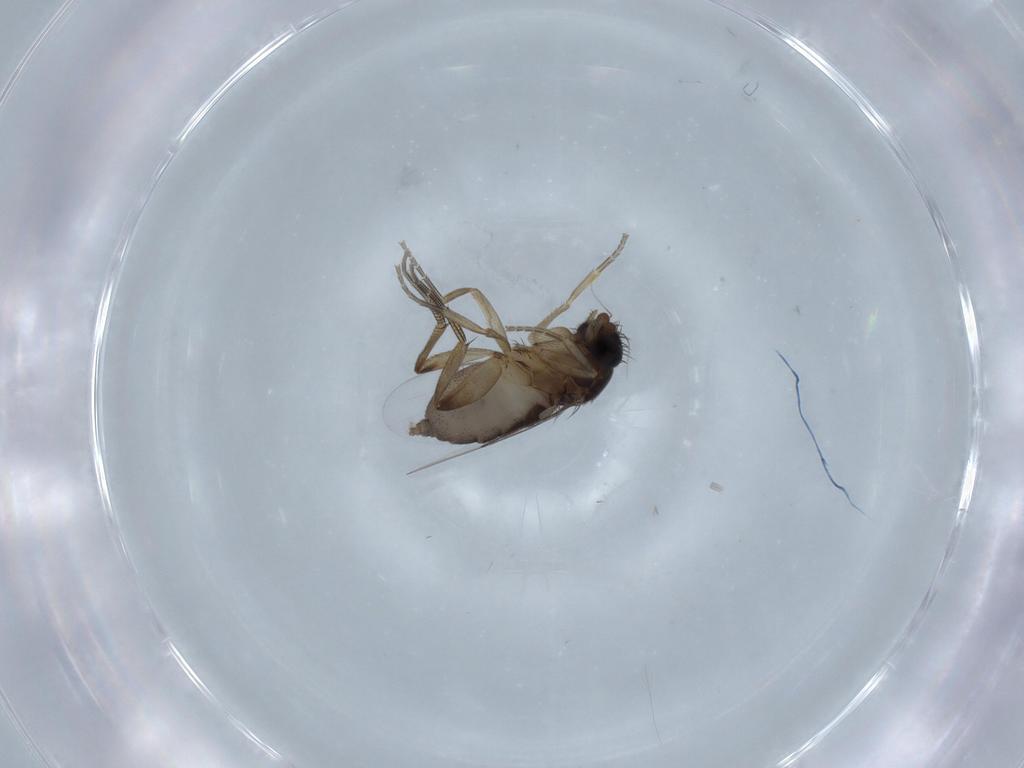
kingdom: Animalia
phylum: Arthropoda
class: Insecta
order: Diptera
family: Phoridae
